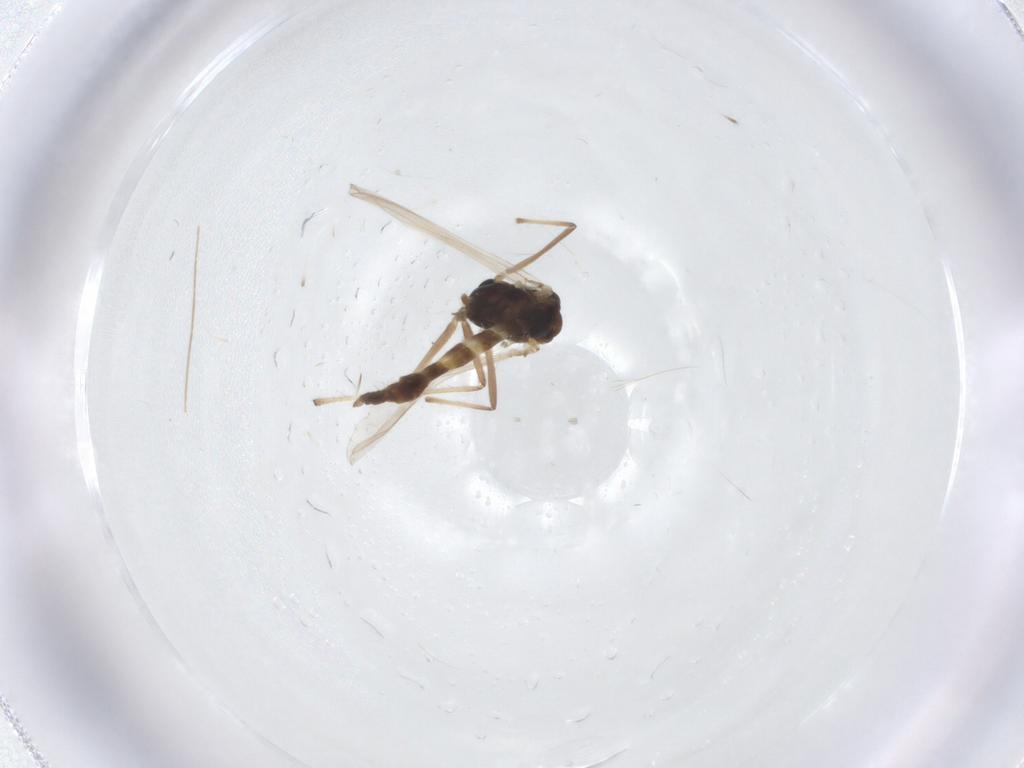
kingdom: Animalia
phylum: Arthropoda
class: Insecta
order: Diptera
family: Chironomidae
